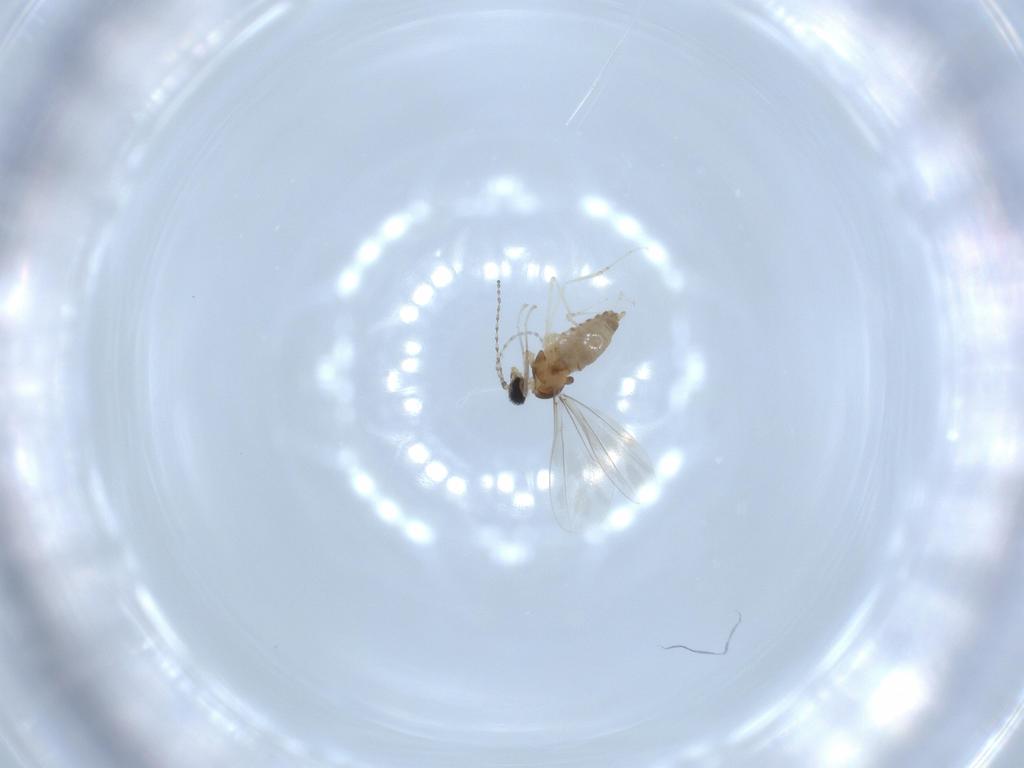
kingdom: Animalia
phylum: Arthropoda
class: Insecta
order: Diptera
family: Cecidomyiidae
